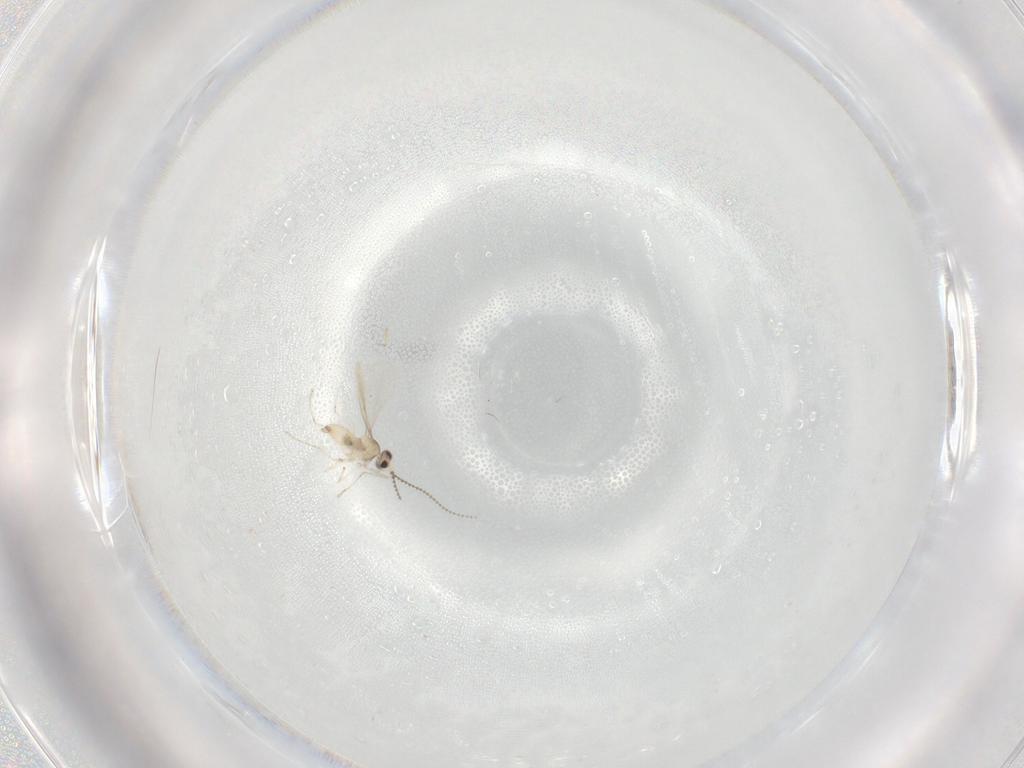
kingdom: Animalia
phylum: Arthropoda
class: Insecta
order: Diptera
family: Cecidomyiidae
